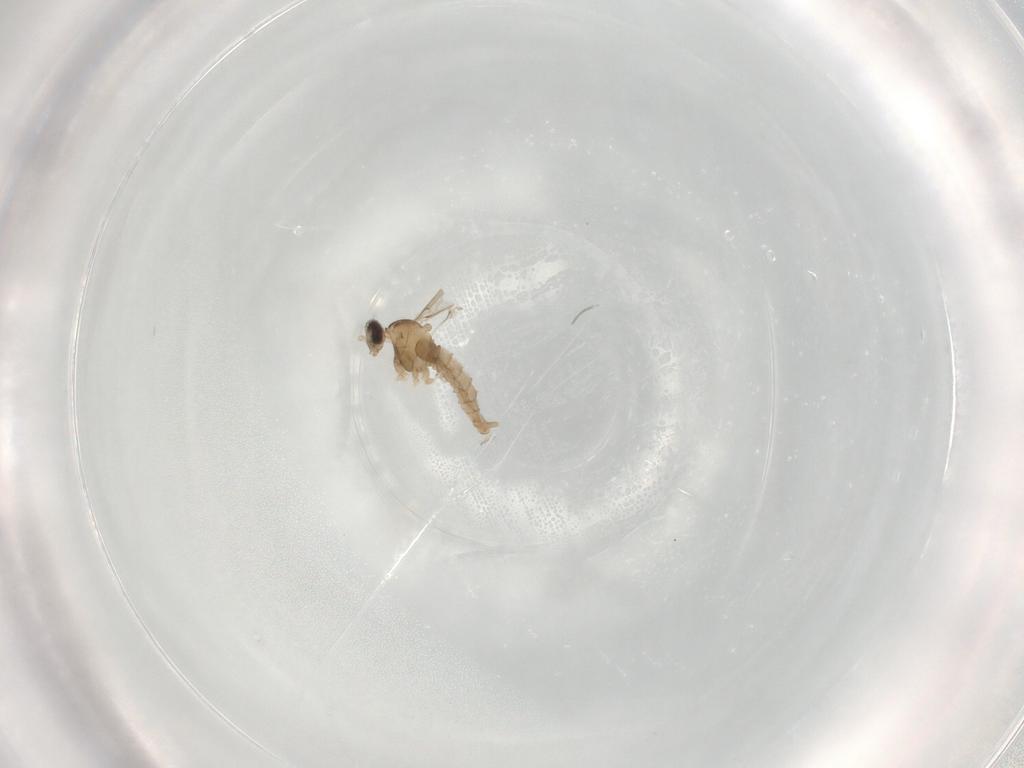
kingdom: Animalia
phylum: Arthropoda
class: Insecta
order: Diptera
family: Cecidomyiidae
